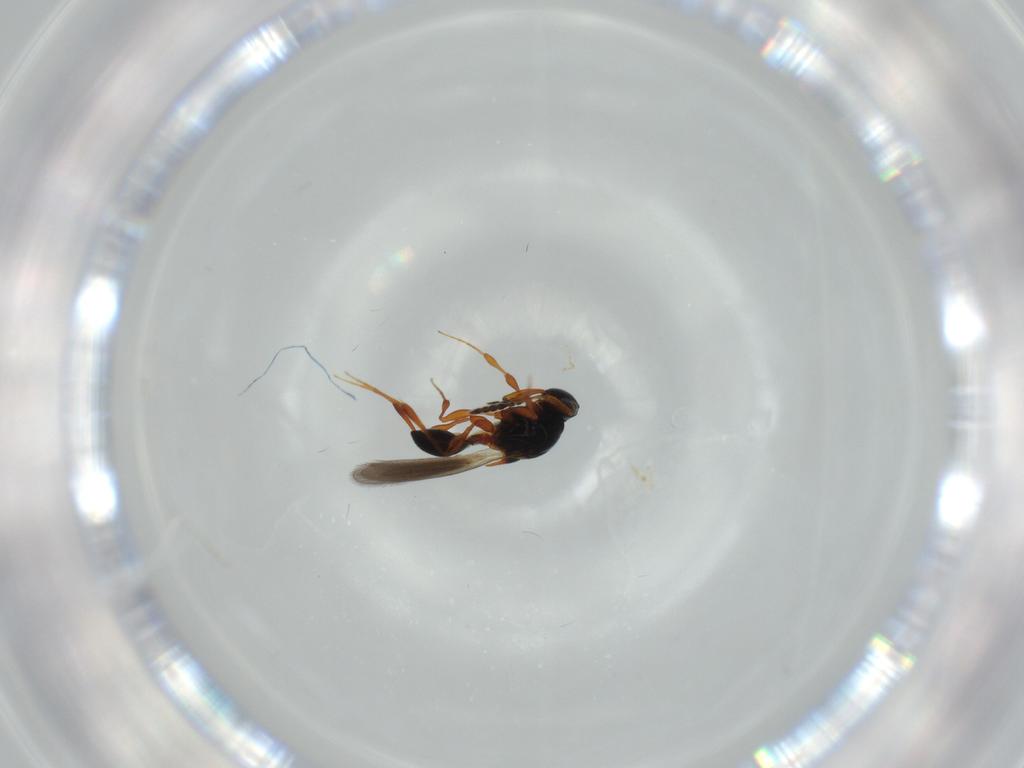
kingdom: Animalia
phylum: Arthropoda
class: Insecta
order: Hymenoptera
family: Platygastridae
